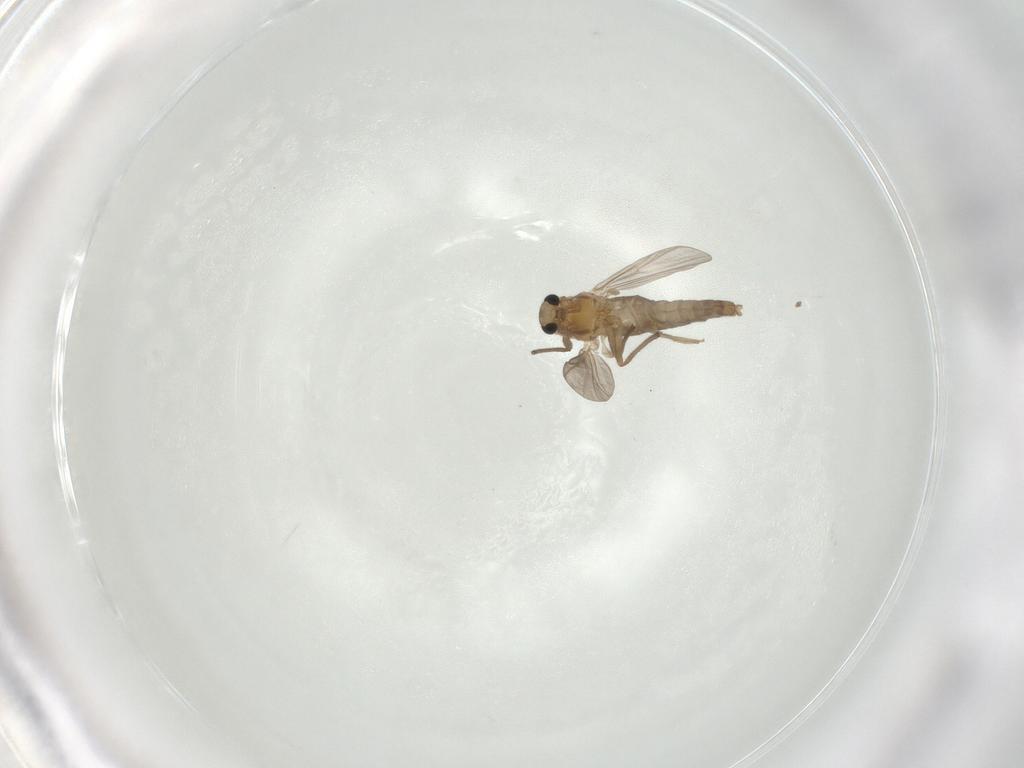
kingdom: Animalia
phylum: Arthropoda
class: Insecta
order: Diptera
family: Chironomidae
